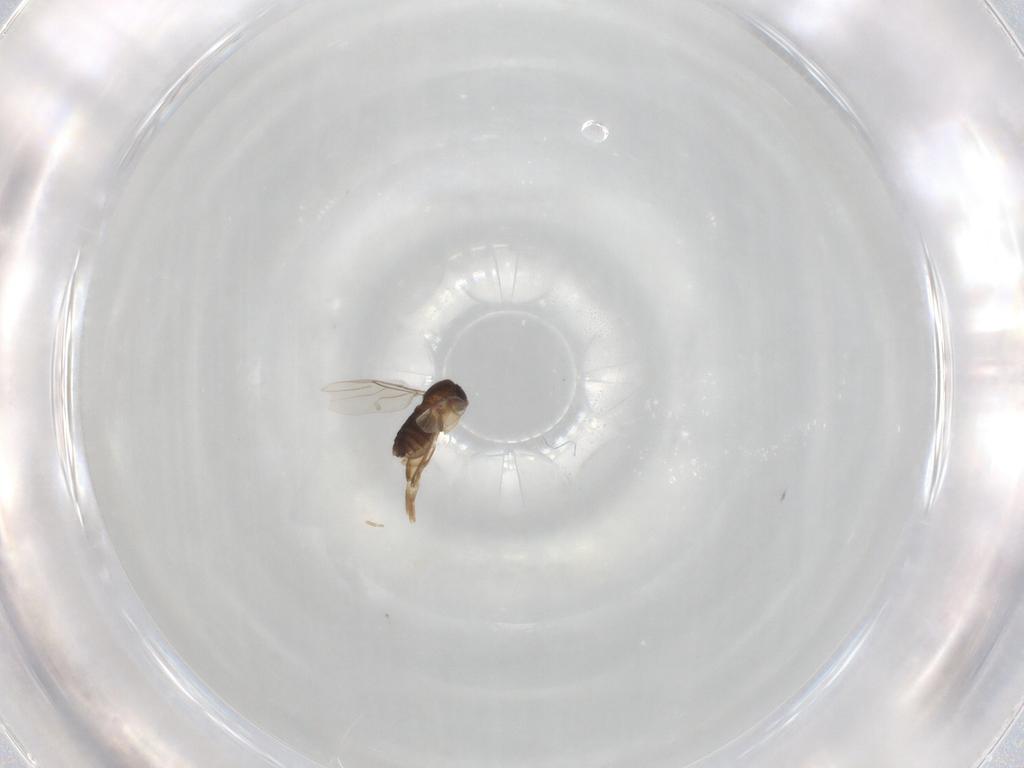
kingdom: Animalia
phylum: Arthropoda
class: Insecta
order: Diptera
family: Phoridae
